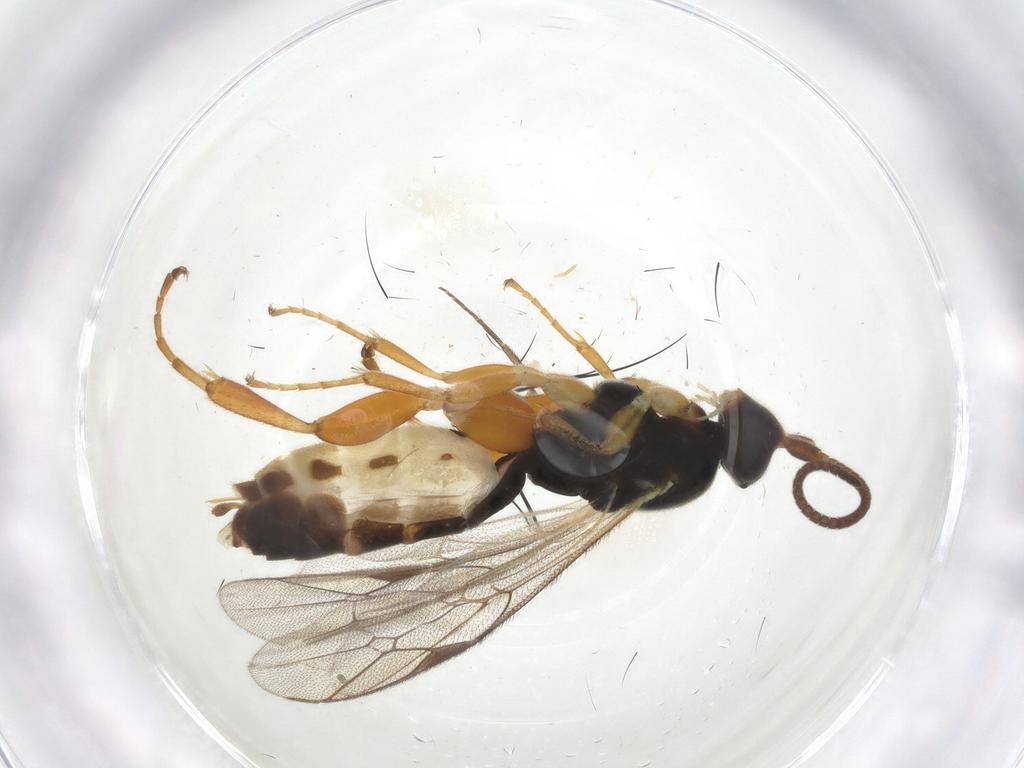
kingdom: Animalia
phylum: Arthropoda
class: Insecta
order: Hymenoptera
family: Ichneumonidae
